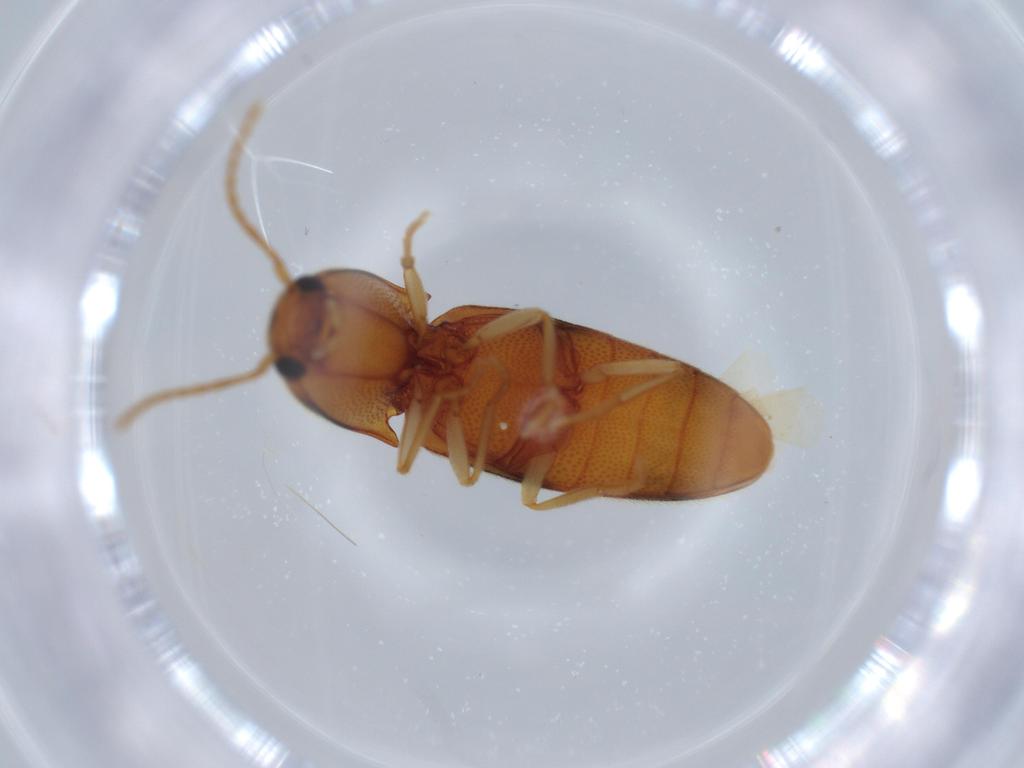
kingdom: Animalia
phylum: Arthropoda
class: Insecta
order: Coleoptera
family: Elateridae
